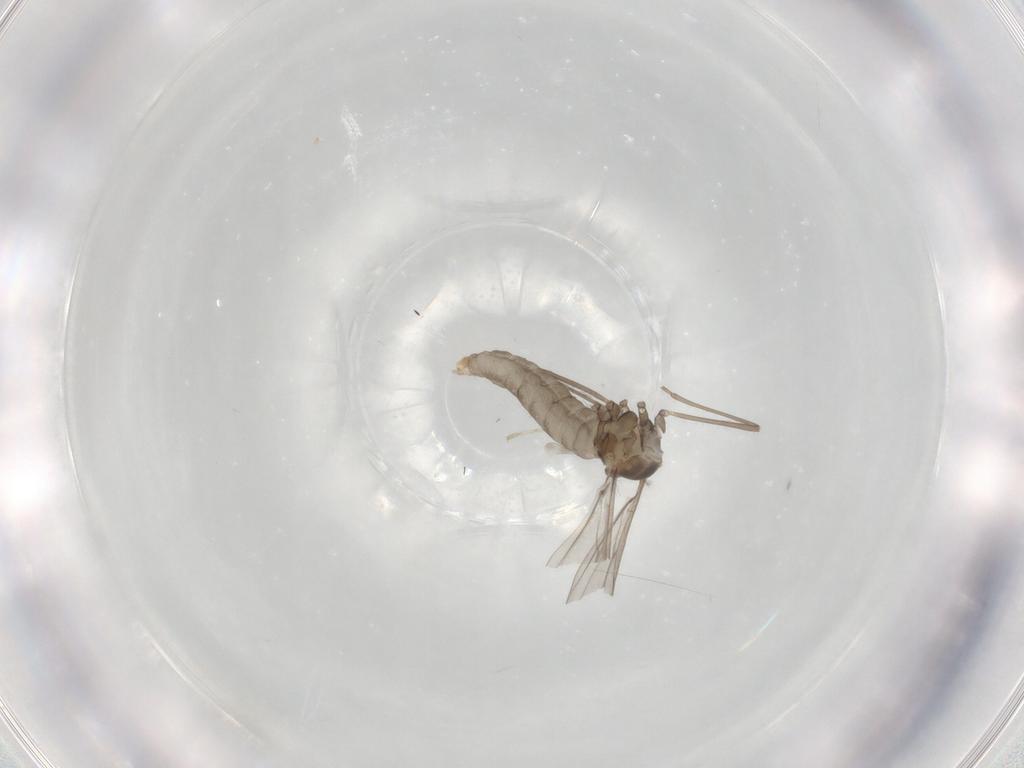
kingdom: Animalia
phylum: Arthropoda
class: Insecta
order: Diptera
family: Cecidomyiidae
